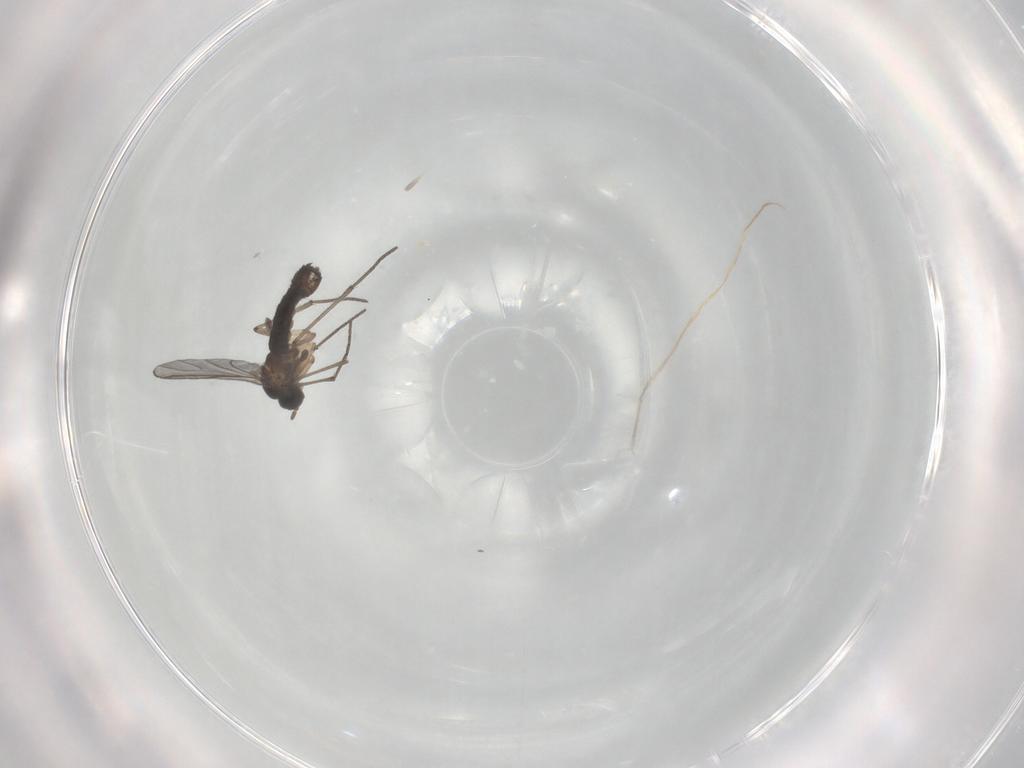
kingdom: Animalia
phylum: Arthropoda
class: Insecta
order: Diptera
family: Sciaridae
